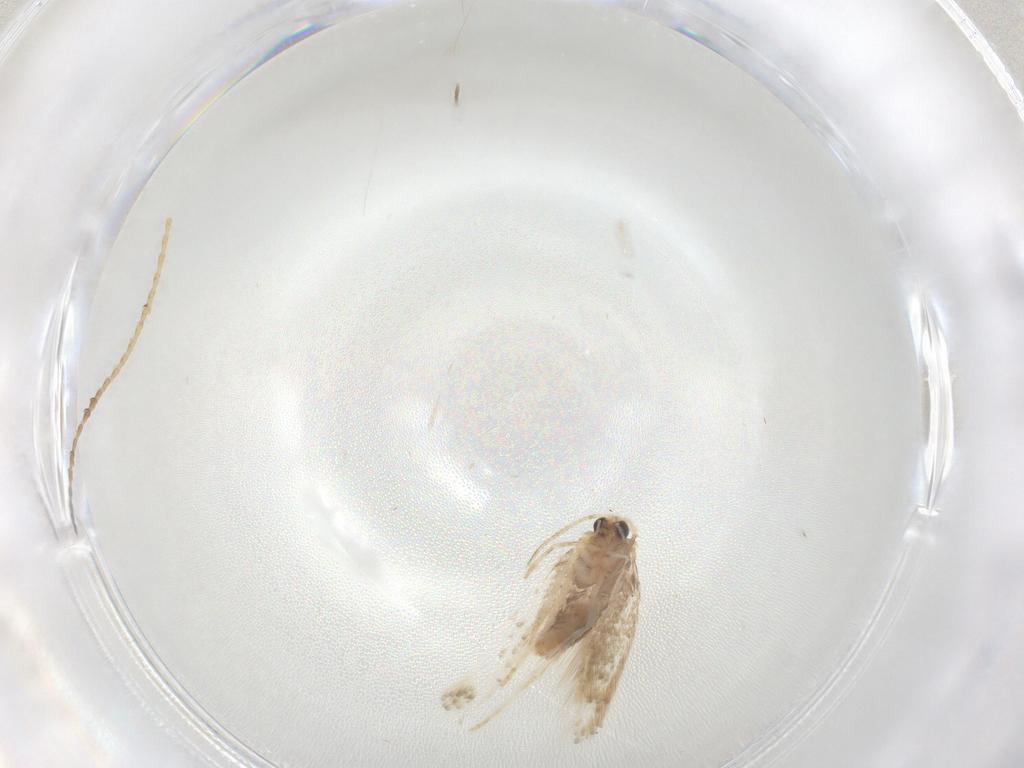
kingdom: Animalia
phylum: Arthropoda
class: Insecta
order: Lepidoptera
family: Nepticulidae
